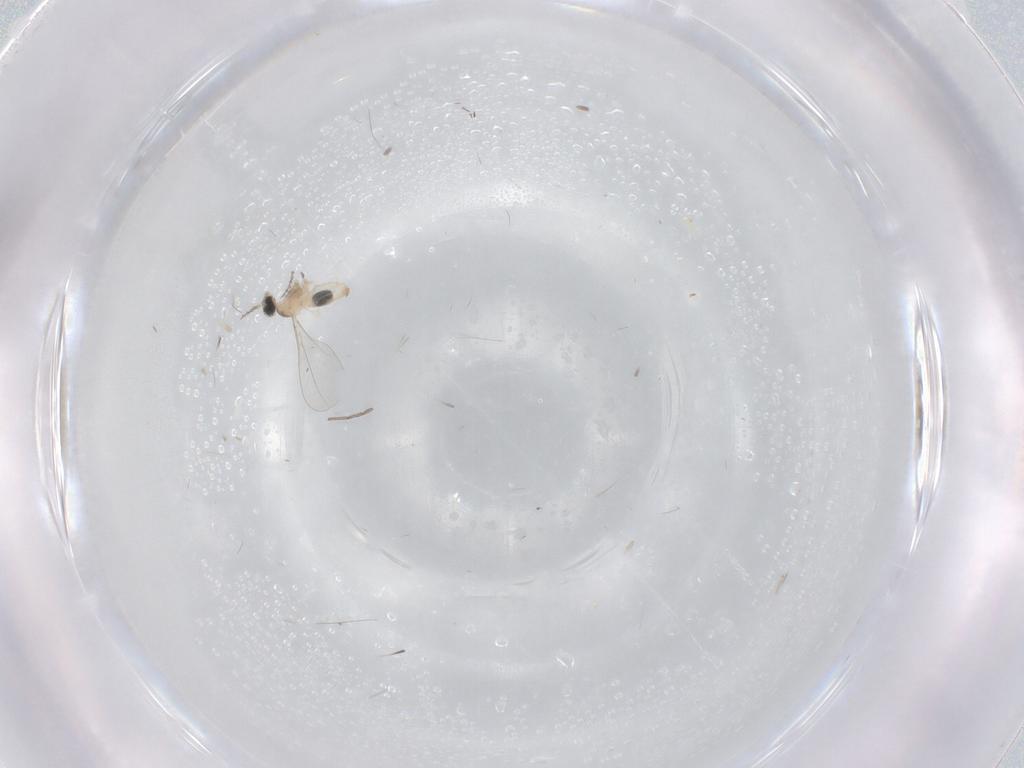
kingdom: Animalia
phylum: Arthropoda
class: Insecta
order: Diptera
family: Cecidomyiidae
